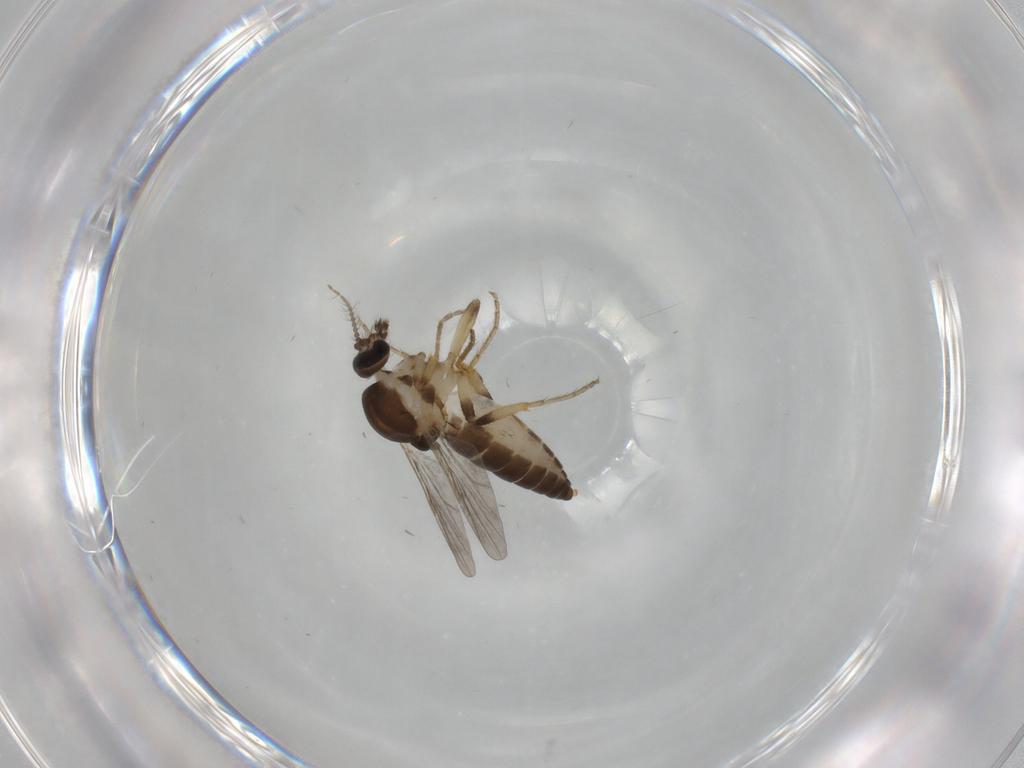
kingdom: Animalia
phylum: Arthropoda
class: Insecta
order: Diptera
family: Ceratopogonidae
